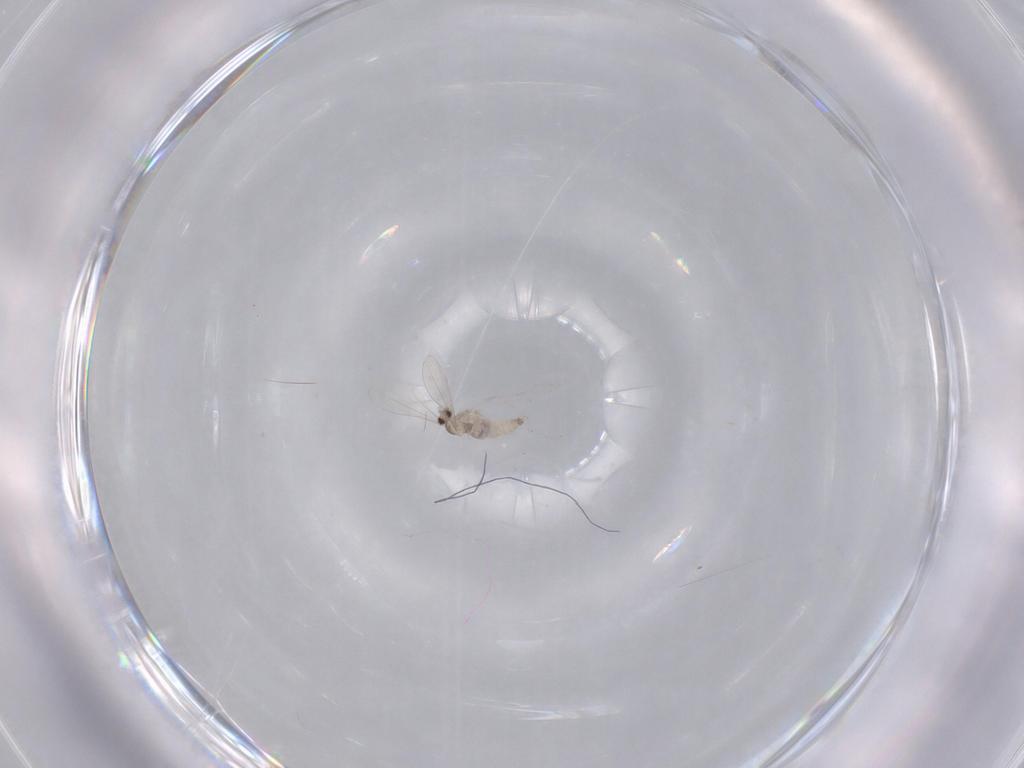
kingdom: Animalia
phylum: Arthropoda
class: Insecta
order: Diptera
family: Cecidomyiidae
